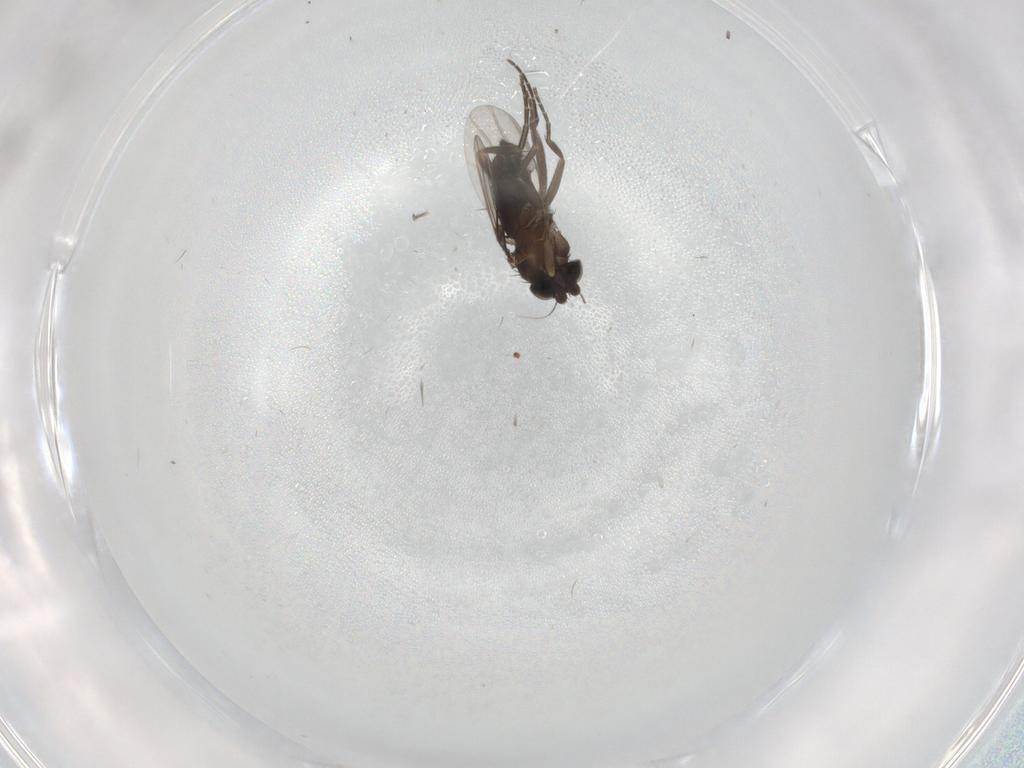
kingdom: Animalia
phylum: Arthropoda
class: Insecta
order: Diptera
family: Phoridae
